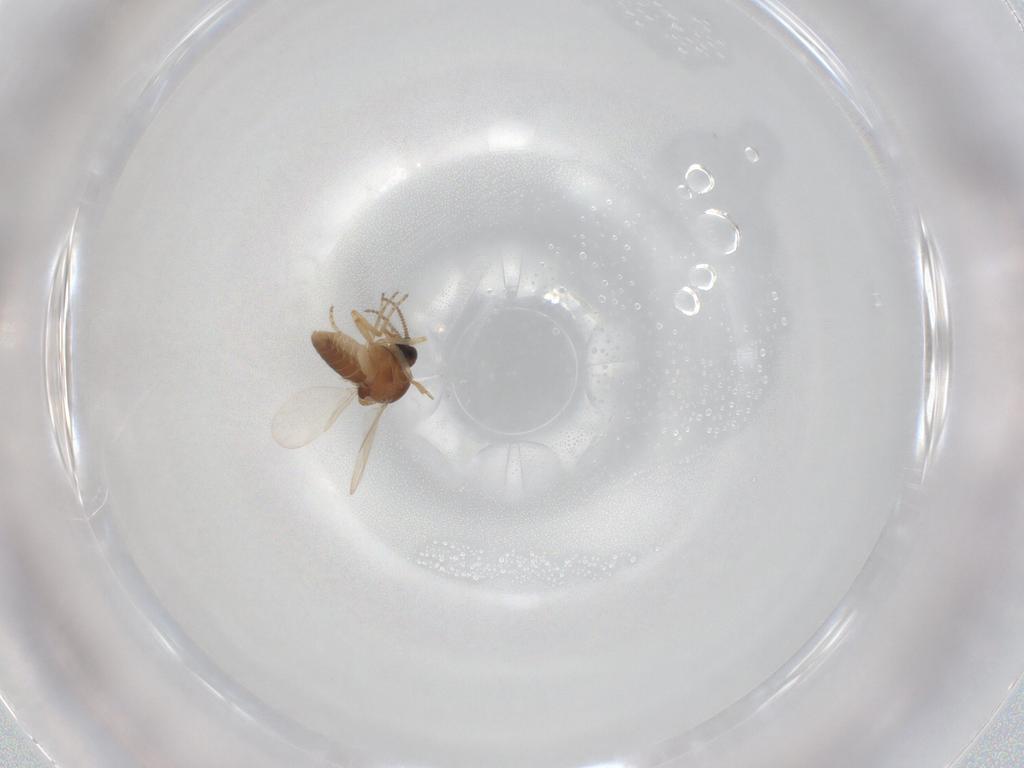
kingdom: Animalia
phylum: Arthropoda
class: Insecta
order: Diptera
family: Ceratopogonidae
